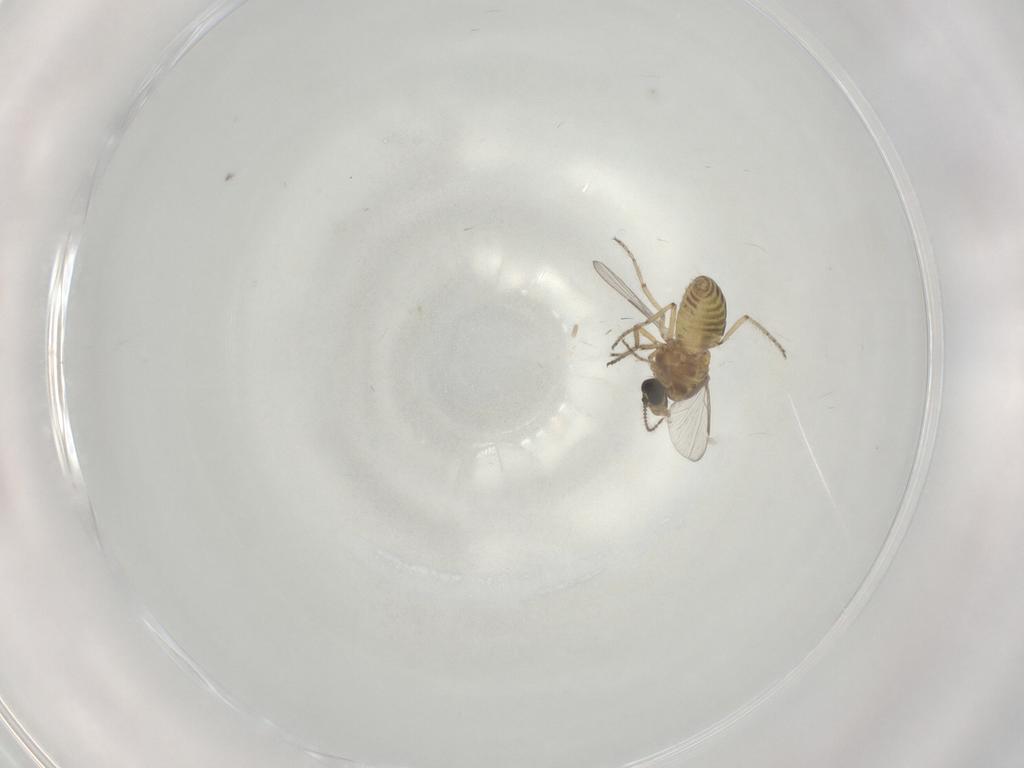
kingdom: Animalia
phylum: Arthropoda
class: Insecta
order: Diptera
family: Ceratopogonidae
